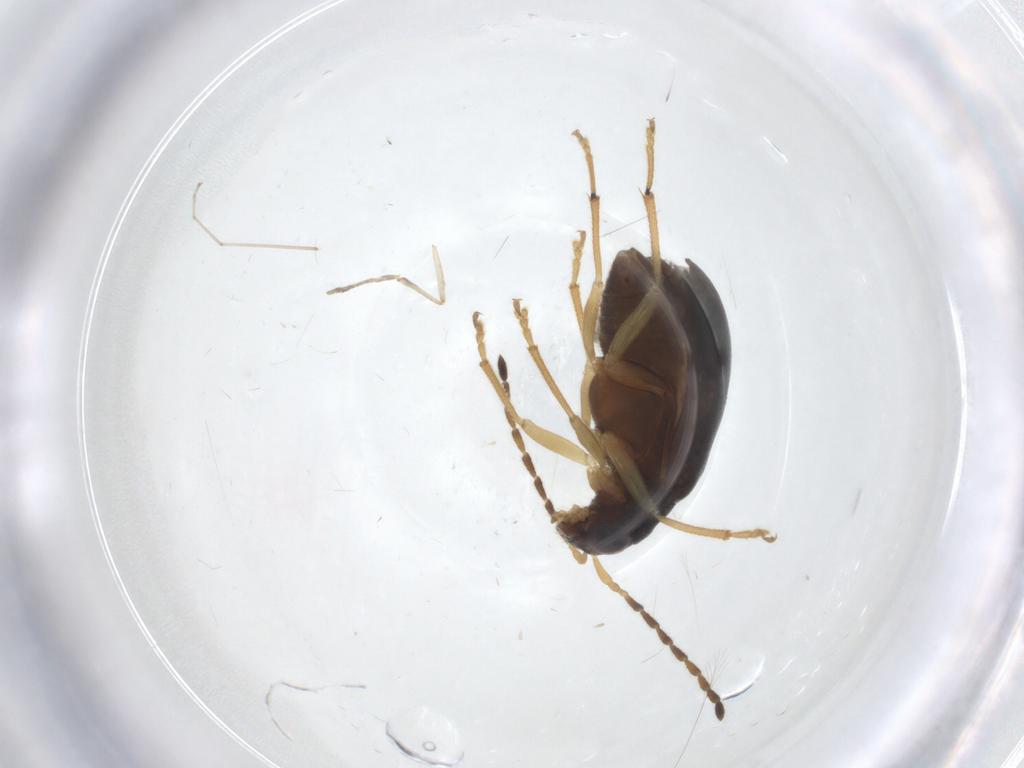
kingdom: Animalia
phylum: Arthropoda
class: Insecta
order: Coleoptera
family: Chrysomelidae
